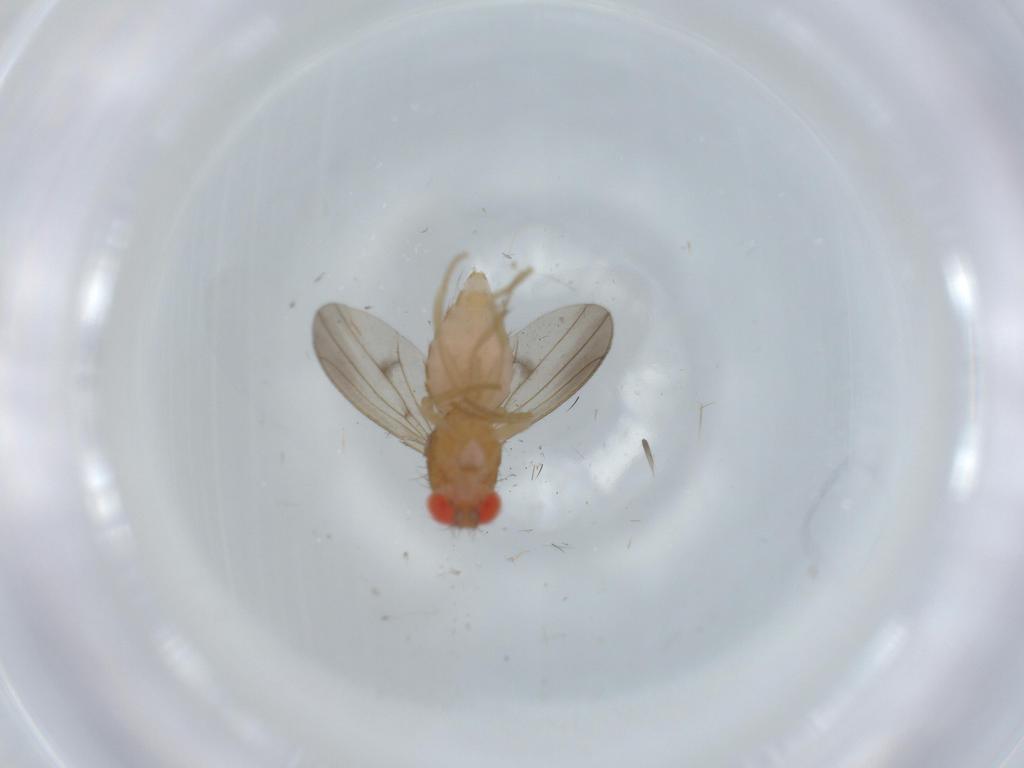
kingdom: Animalia
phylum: Arthropoda
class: Insecta
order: Diptera
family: Drosophilidae
